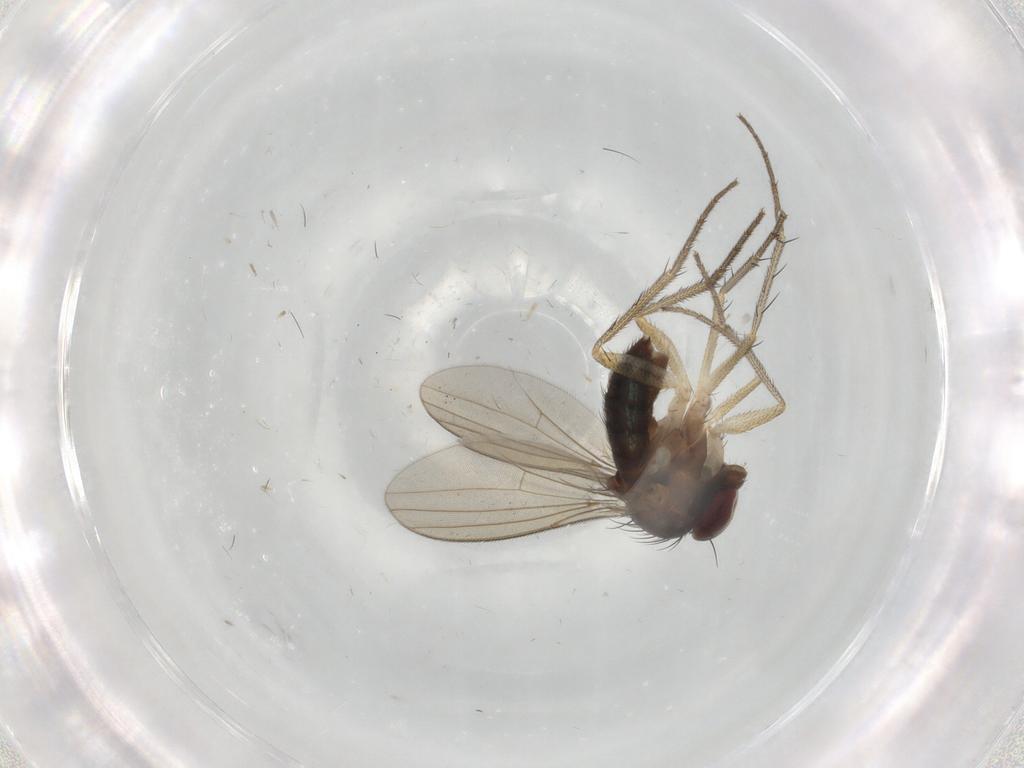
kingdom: Animalia
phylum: Arthropoda
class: Insecta
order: Diptera
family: Dolichopodidae
